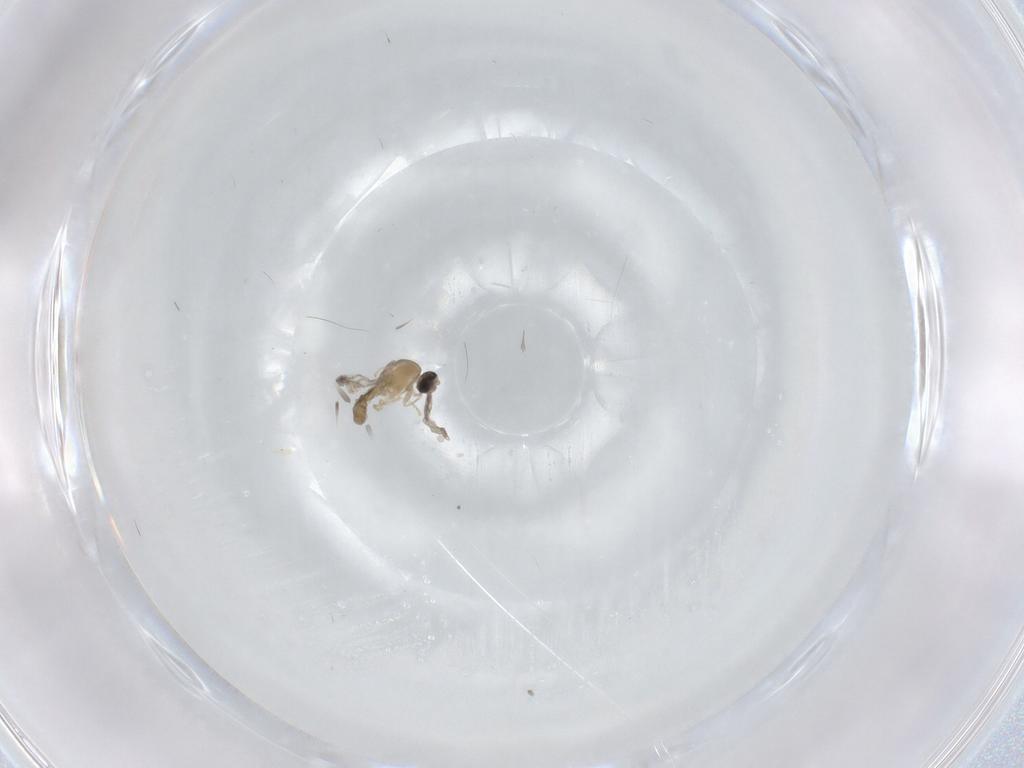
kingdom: Animalia
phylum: Arthropoda
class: Insecta
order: Diptera
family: Cecidomyiidae
